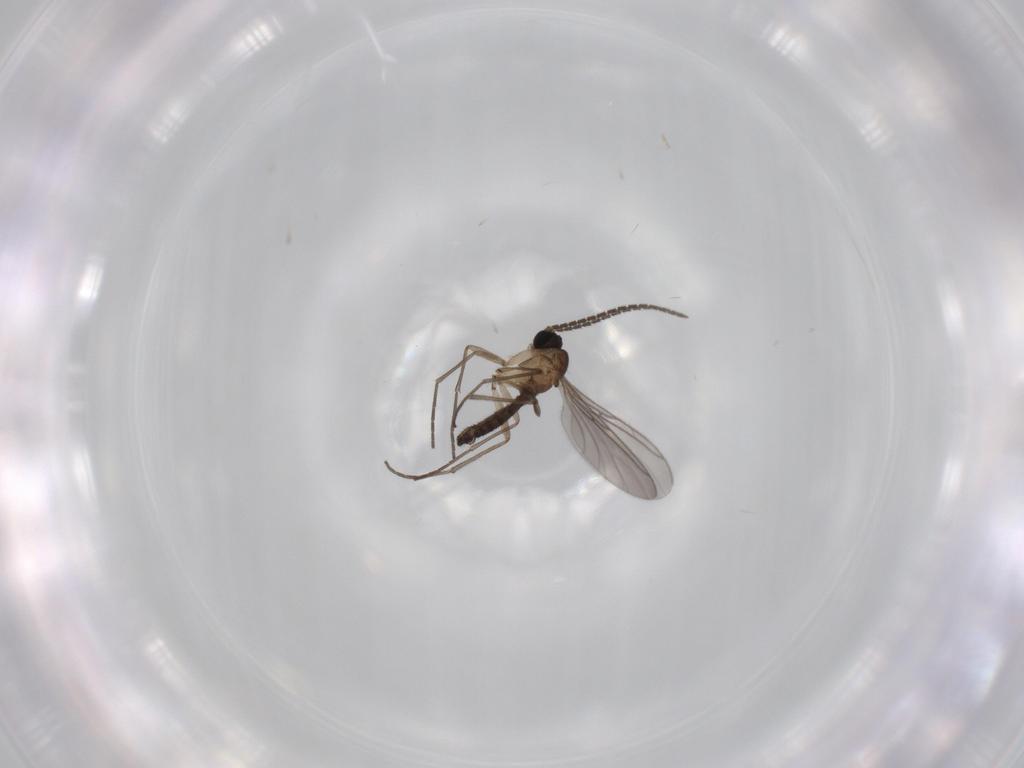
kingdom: Animalia
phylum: Arthropoda
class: Insecta
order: Diptera
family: Sciaridae
